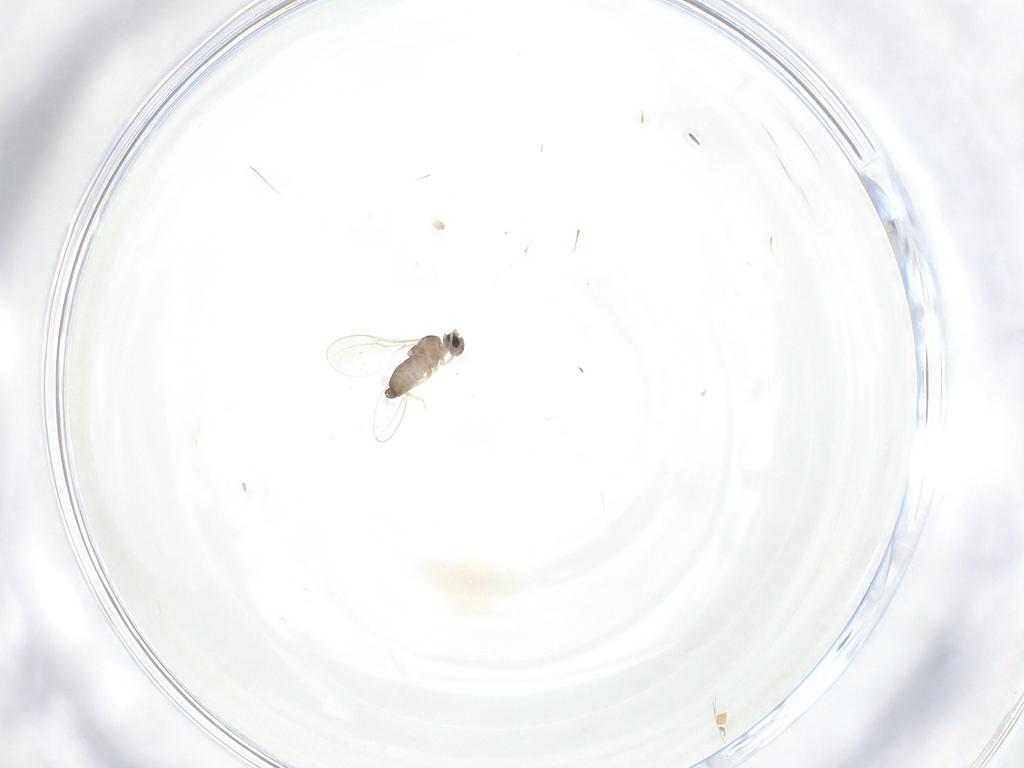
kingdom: Animalia
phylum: Arthropoda
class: Insecta
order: Diptera
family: Cecidomyiidae
